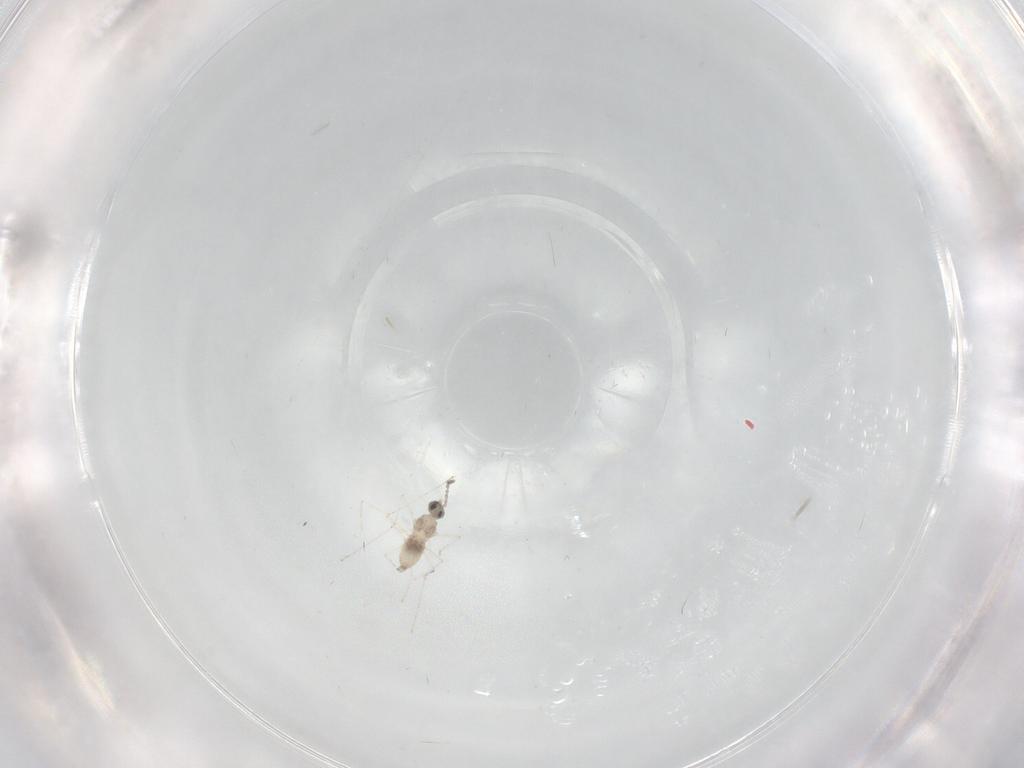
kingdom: Animalia
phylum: Arthropoda
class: Insecta
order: Diptera
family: Cecidomyiidae
